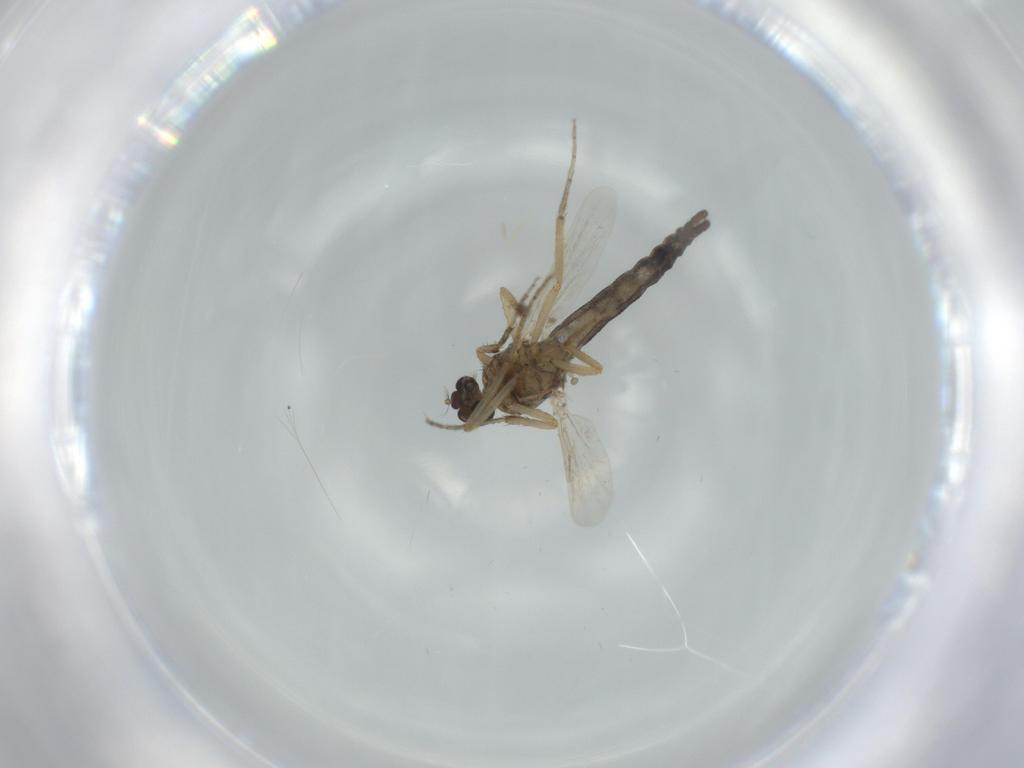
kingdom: Animalia
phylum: Arthropoda
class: Insecta
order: Diptera
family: Ceratopogonidae
